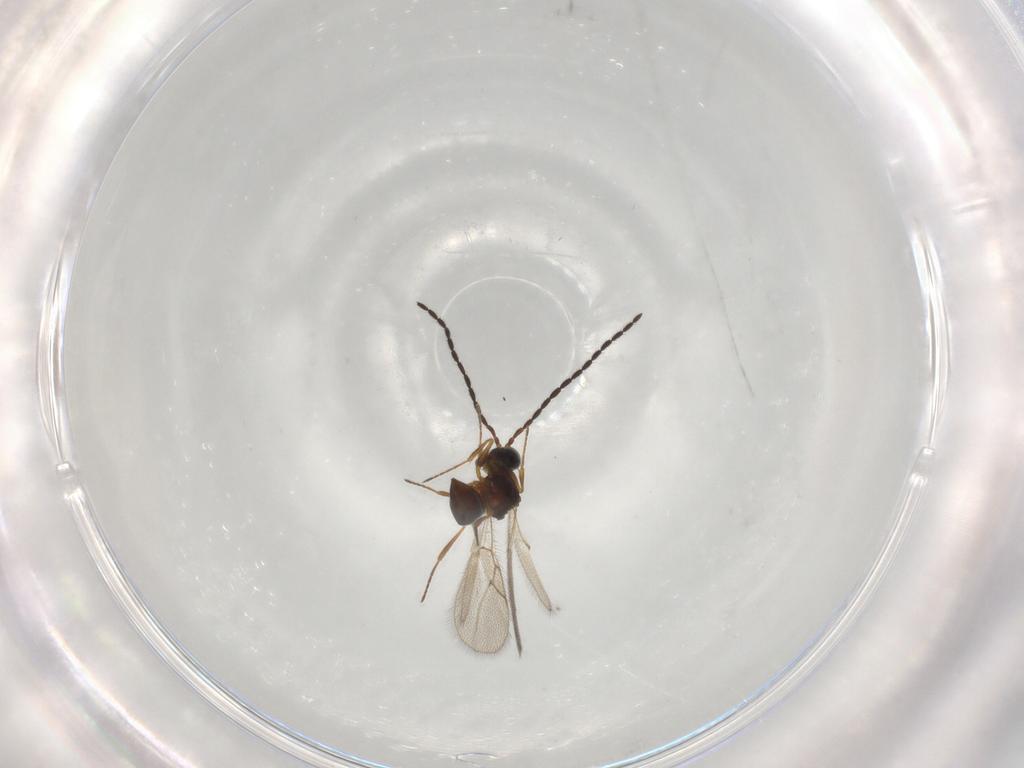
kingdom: Animalia
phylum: Arthropoda
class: Insecta
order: Hymenoptera
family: Figitidae
